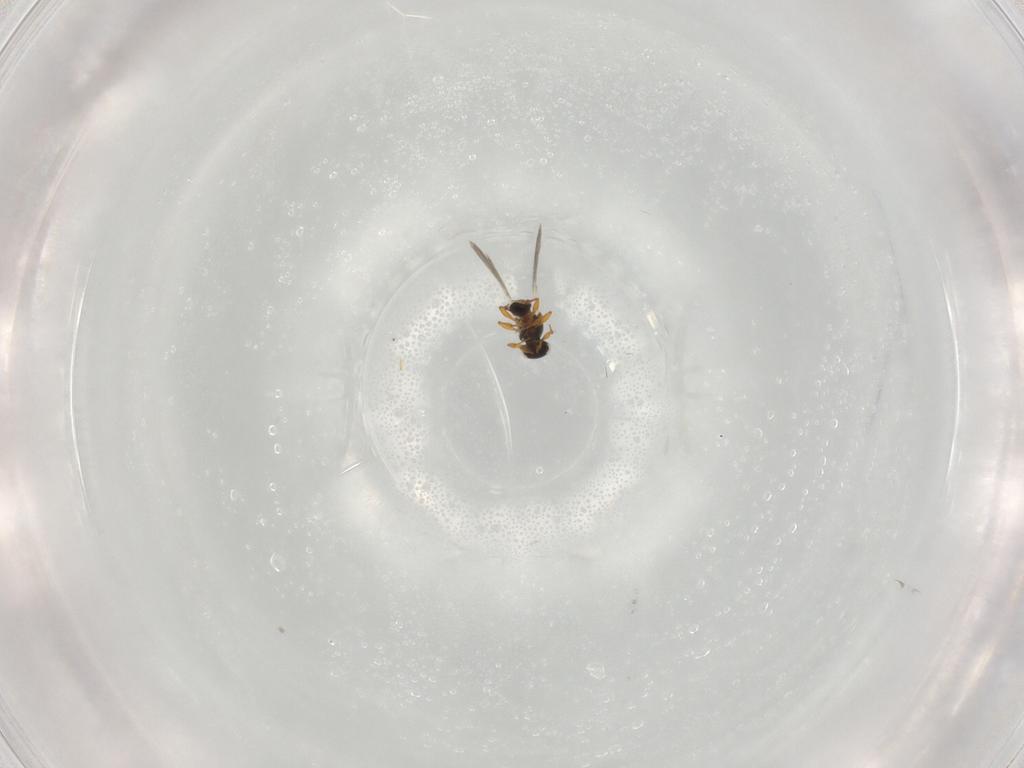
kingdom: Animalia
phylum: Arthropoda
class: Insecta
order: Hymenoptera
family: Platygastridae
